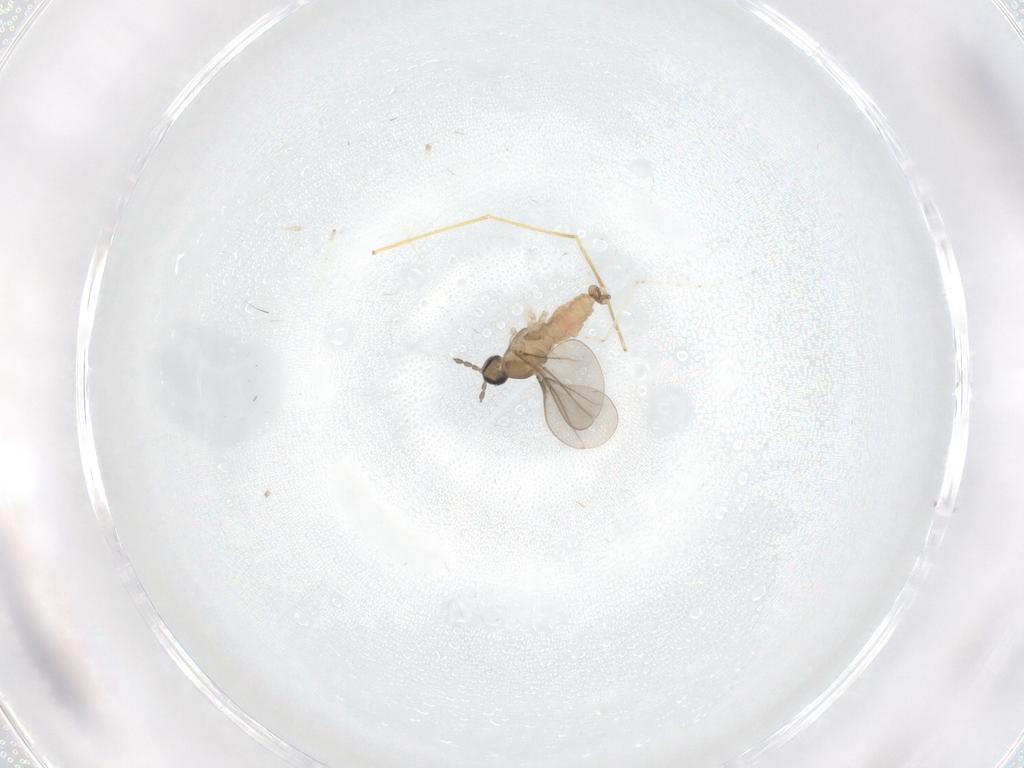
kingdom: Animalia
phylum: Arthropoda
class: Insecta
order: Diptera
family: Cecidomyiidae
